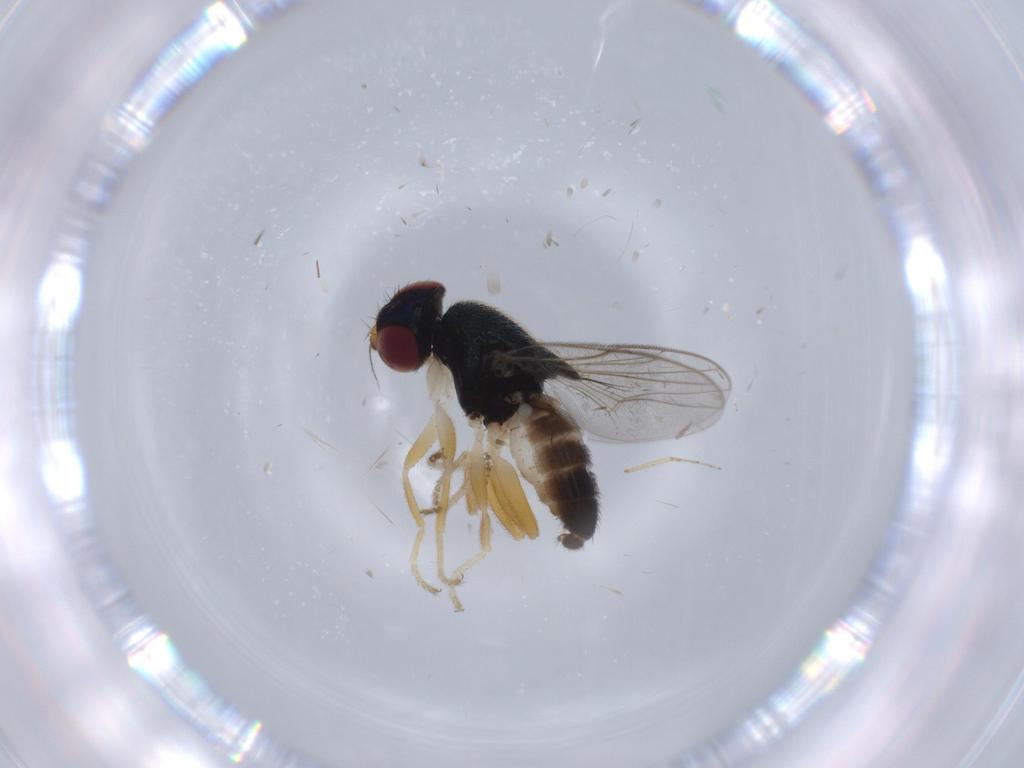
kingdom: Animalia
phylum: Arthropoda
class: Insecta
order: Diptera
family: Chloropidae
